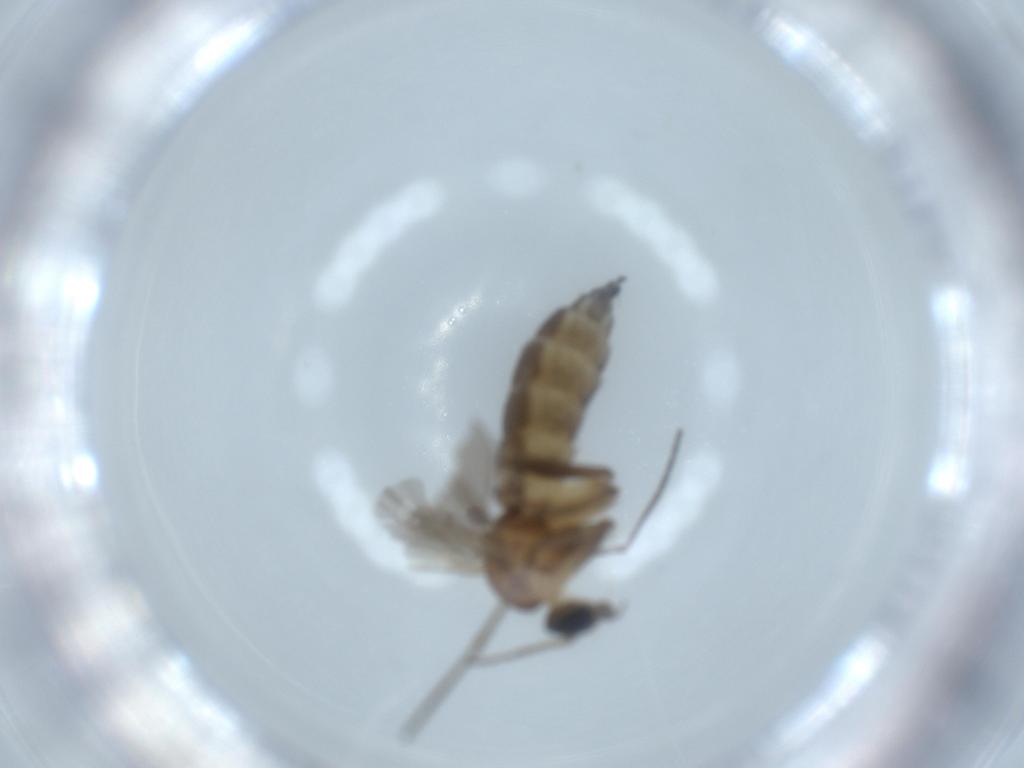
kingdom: Animalia
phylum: Arthropoda
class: Insecta
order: Diptera
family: Sciaridae
